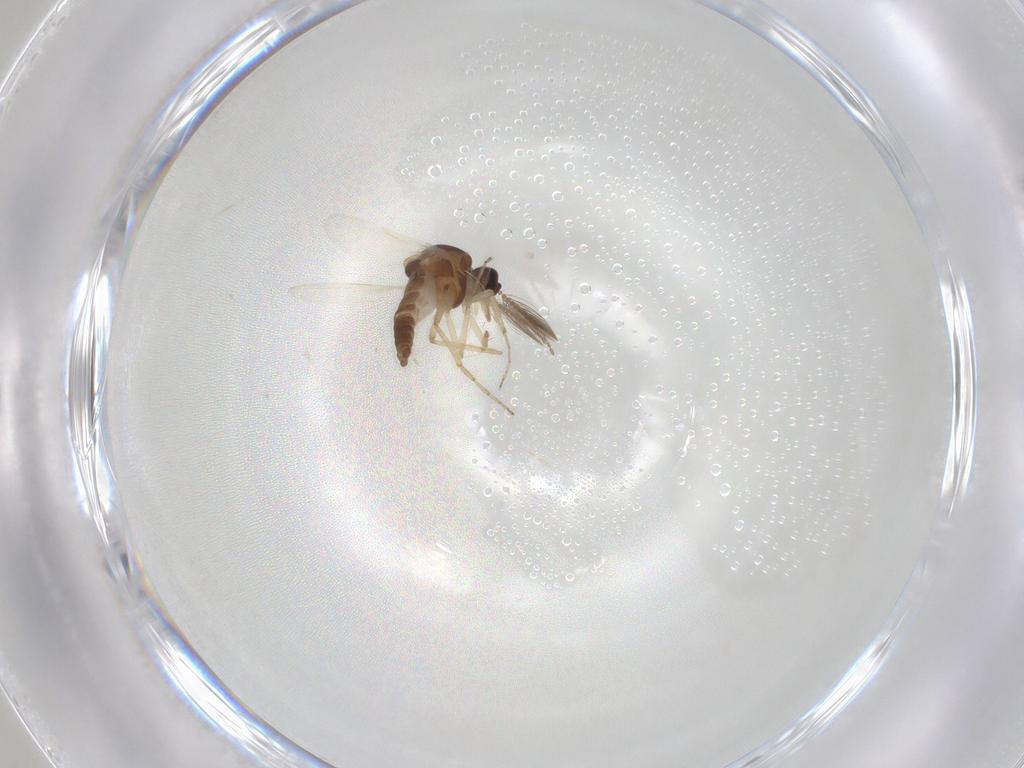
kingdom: Animalia
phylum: Arthropoda
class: Insecta
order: Diptera
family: Ceratopogonidae
